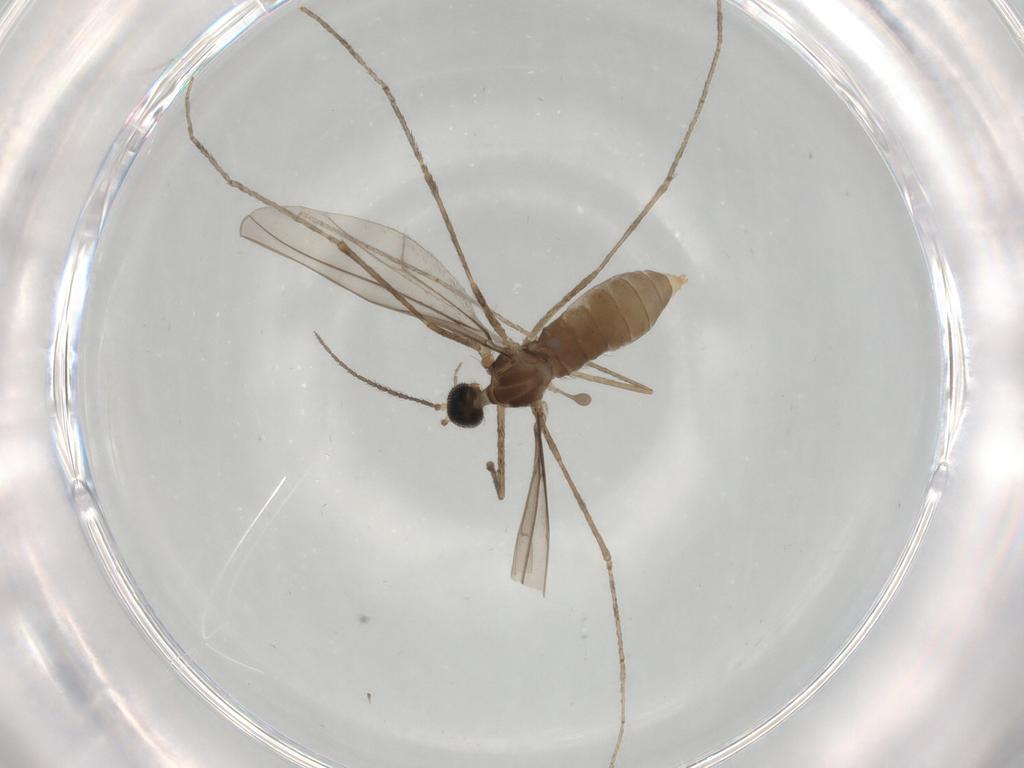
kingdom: Animalia
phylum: Arthropoda
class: Insecta
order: Diptera
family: Cecidomyiidae
